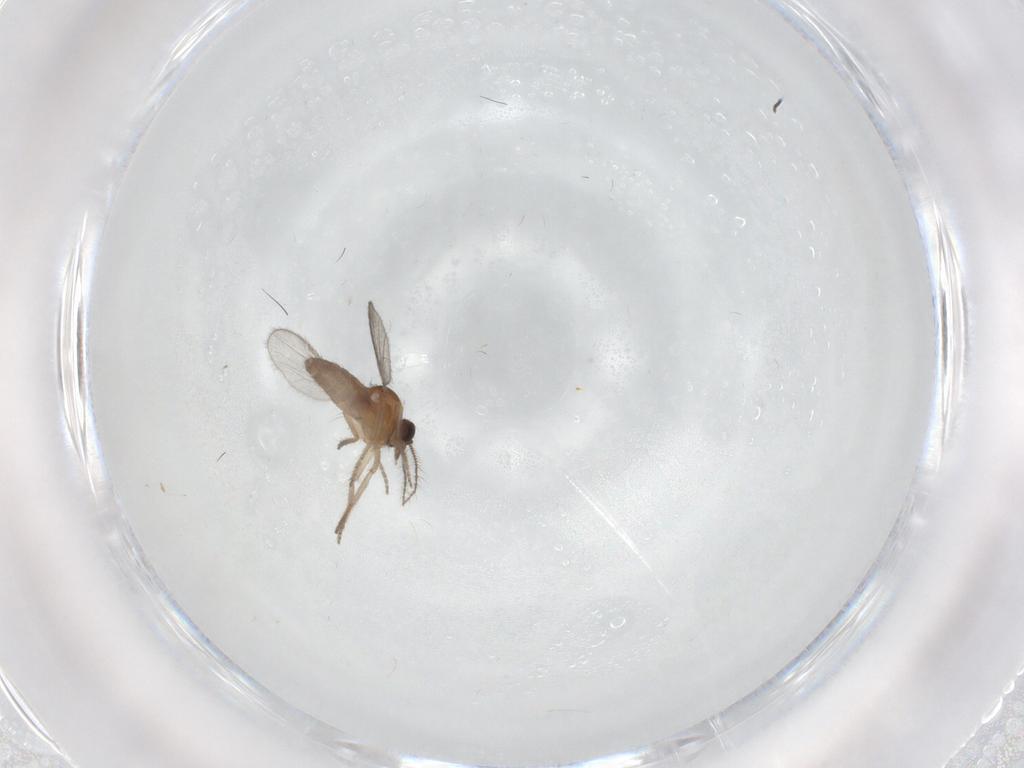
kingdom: Animalia
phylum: Arthropoda
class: Insecta
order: Diptera
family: Ceratopogonidae
